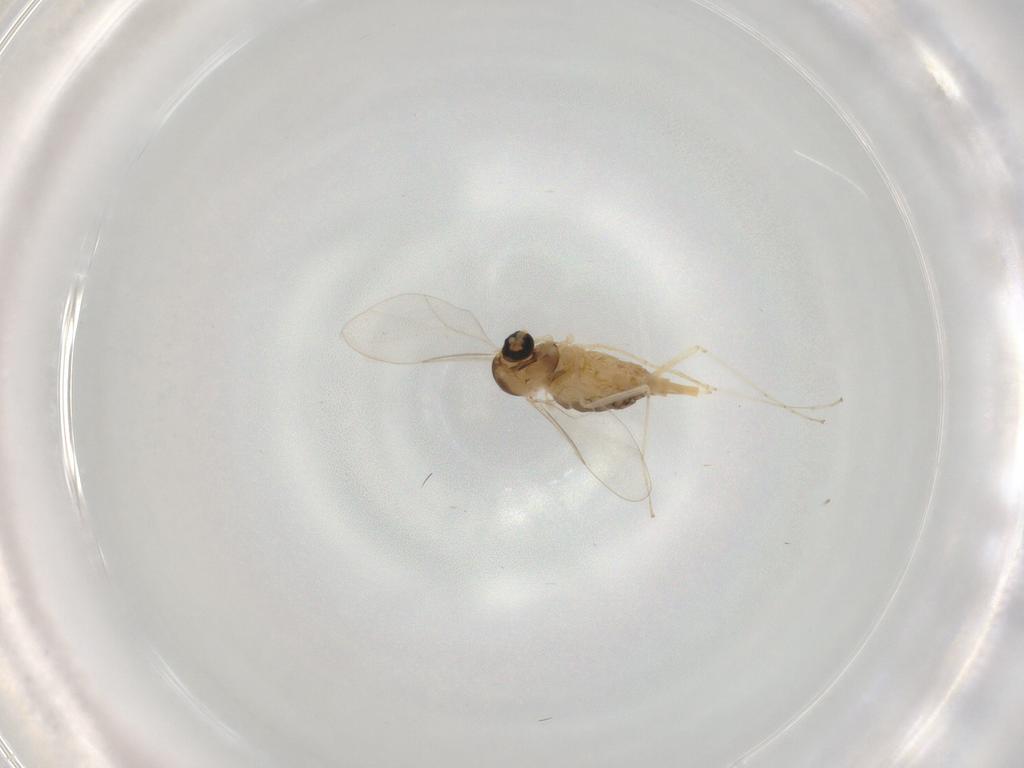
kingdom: Animalia
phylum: Arthropoda
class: Insecta
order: Diptera
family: Cecidomyiidae
